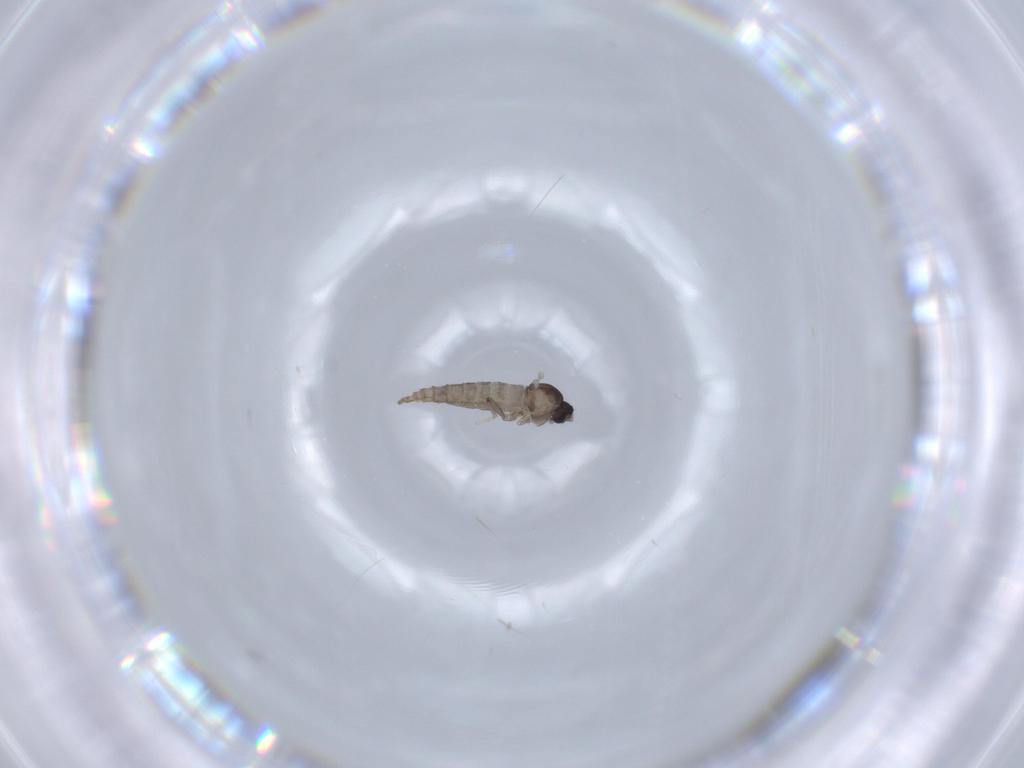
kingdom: Animalia
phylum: Arthropoda
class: Insecta
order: Diptera
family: Cecidomyiidae
